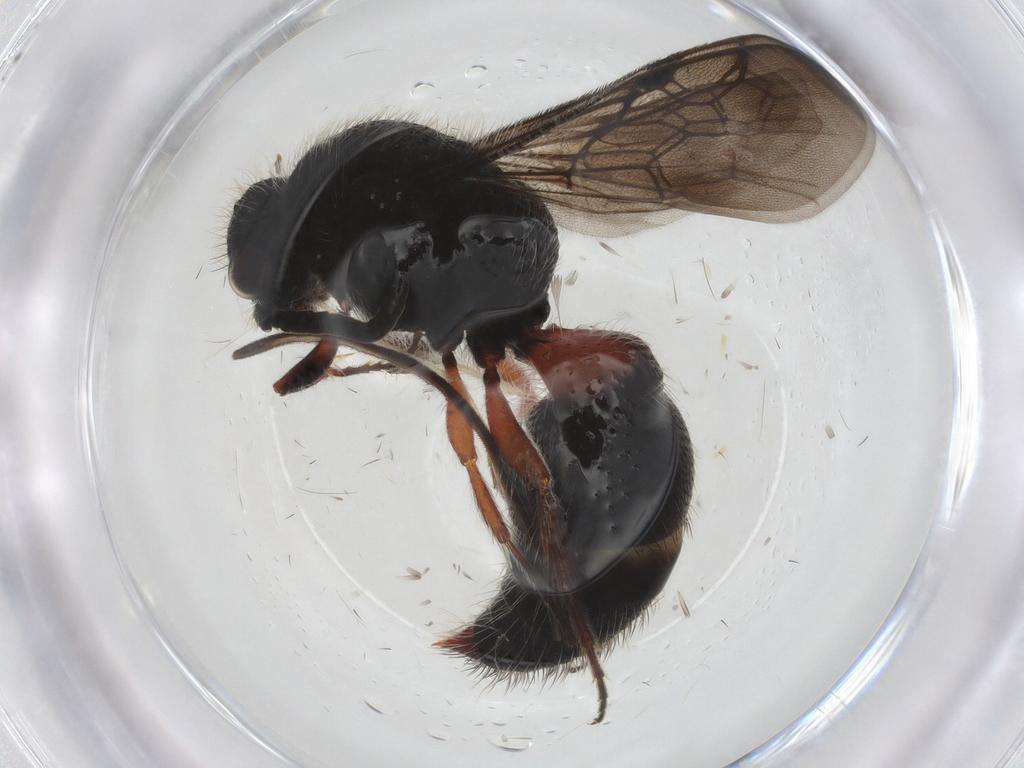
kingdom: Animalia
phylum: Arthropoda
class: Insecta
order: Hymenoptera
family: Ichneumonidae
